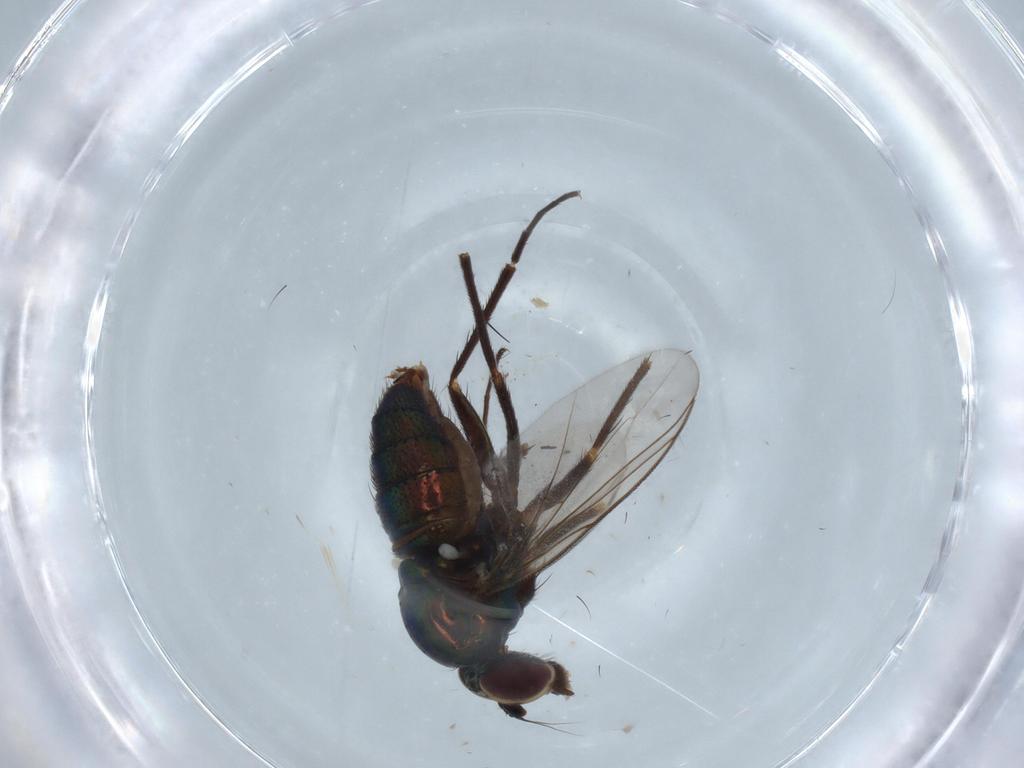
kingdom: Animalia
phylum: Arthropoda
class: Insecta
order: Diptera
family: Dolichopodidae
